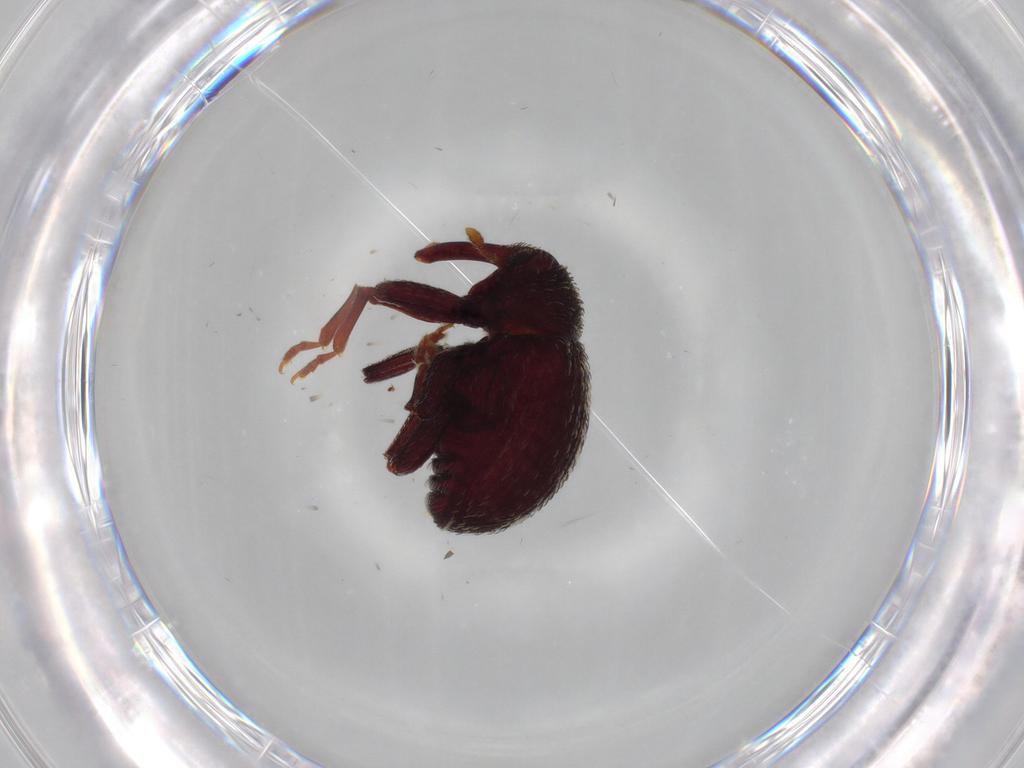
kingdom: Animalia
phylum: Arthropoda
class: Insecta
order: Coleoptera
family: Curculionidae
